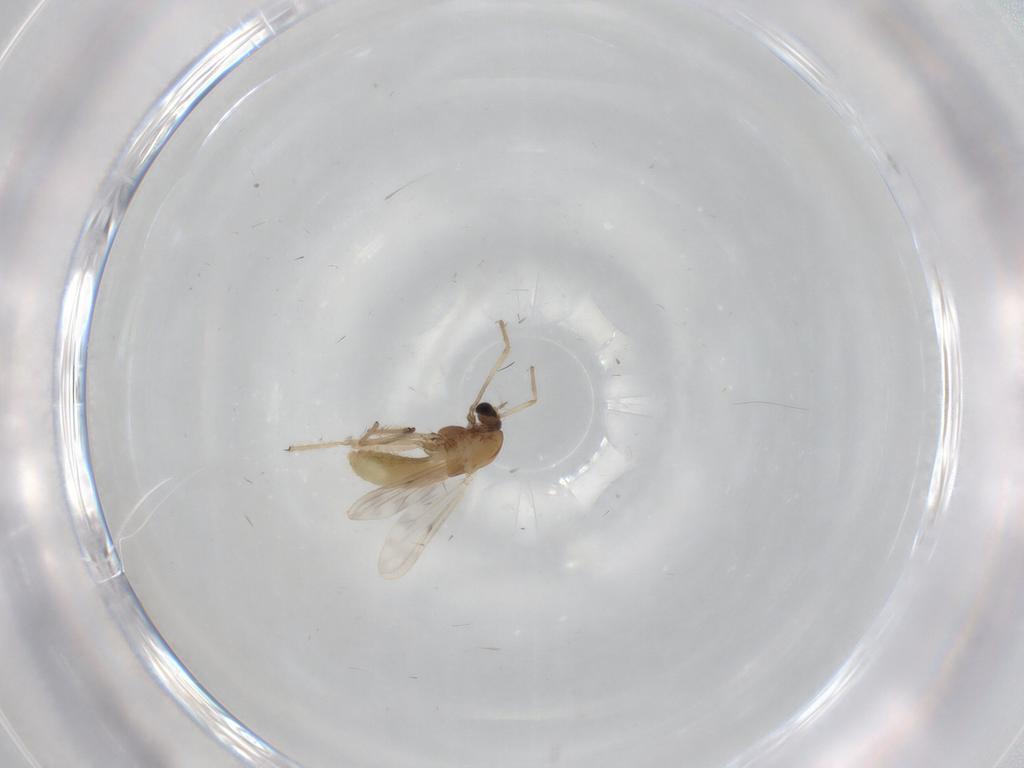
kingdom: Animalia
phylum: Arthropoda
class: Insecta
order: Diptera
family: Chironomidae
